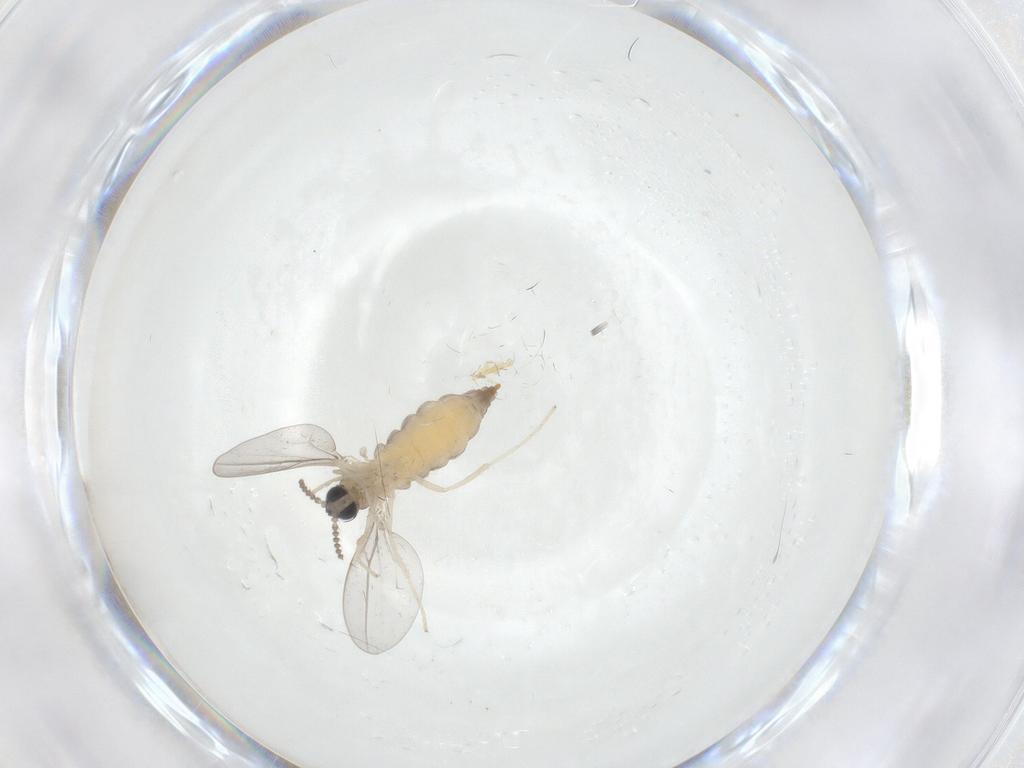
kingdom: Animalia
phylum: Arthropoda
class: Insecta
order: Diptera
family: Cecidomyiidae
